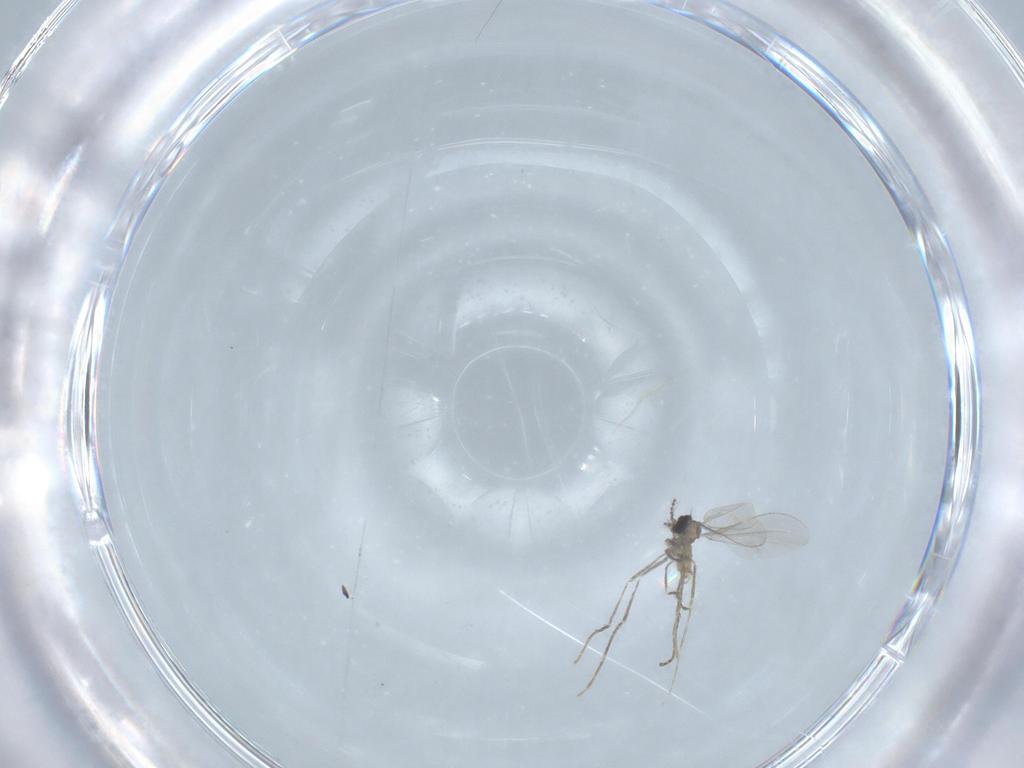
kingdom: Animalia
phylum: Arthropoda
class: Insecta
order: Diptera
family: Cecidomyiidae
